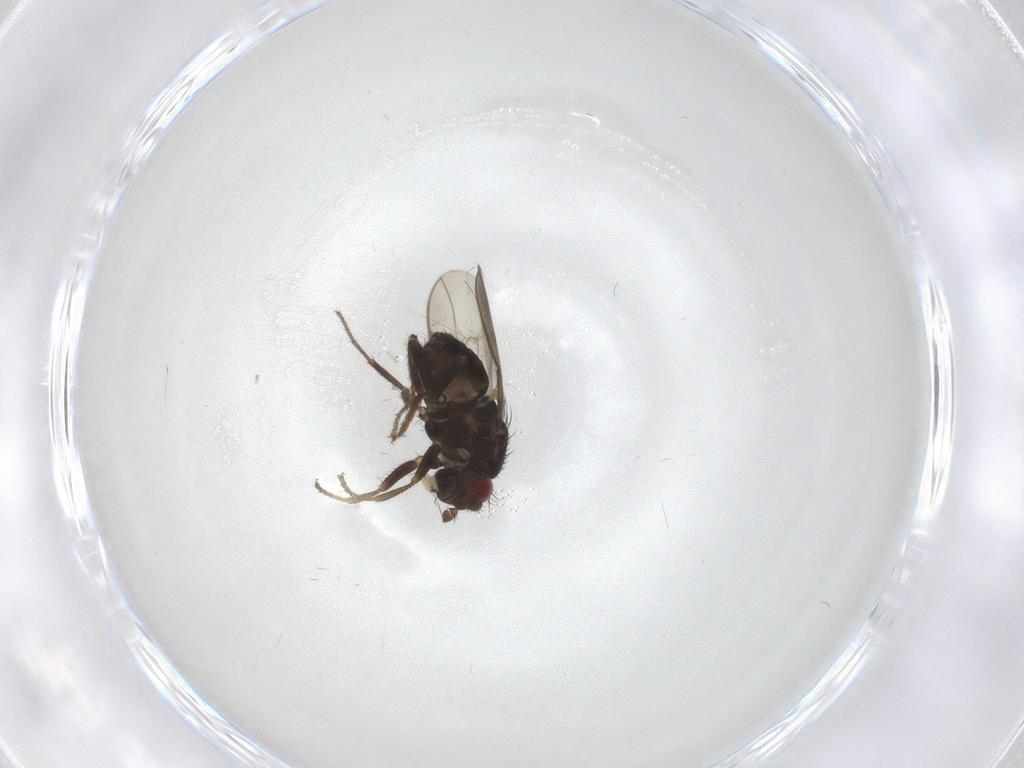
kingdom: Animalia
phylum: Arthropoda
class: Insecta
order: Diptera
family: Sphaeroceridae
